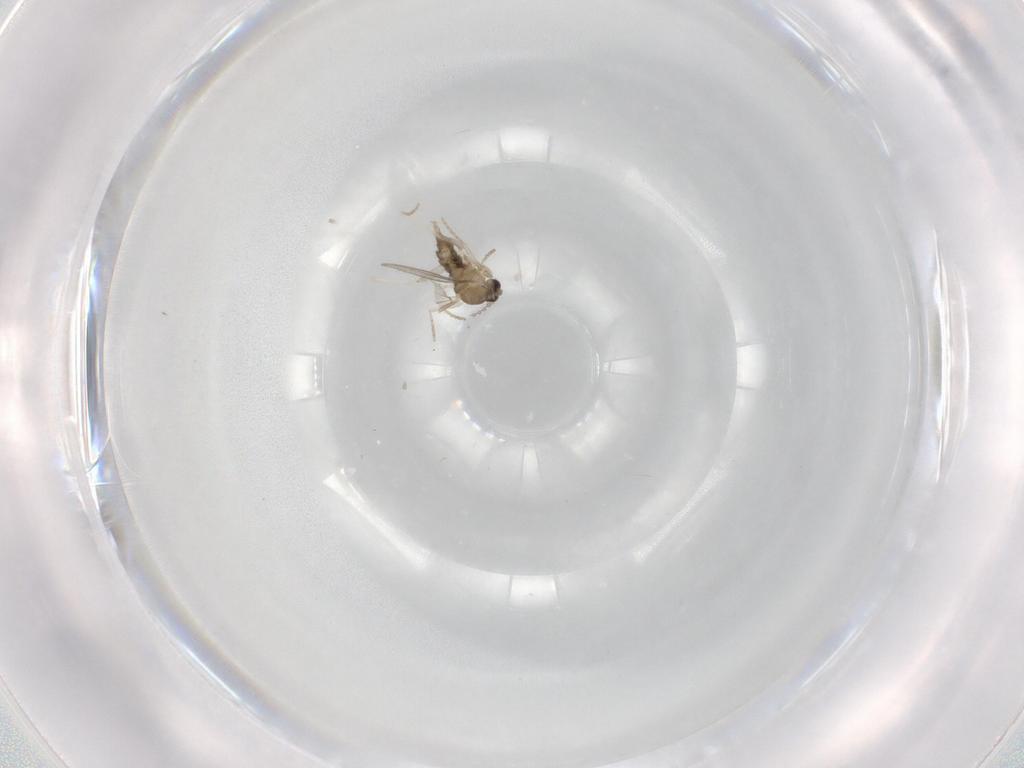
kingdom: Animalia
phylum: Arthropoda
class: Insecta
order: Diptera
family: Cecidomyiidae
